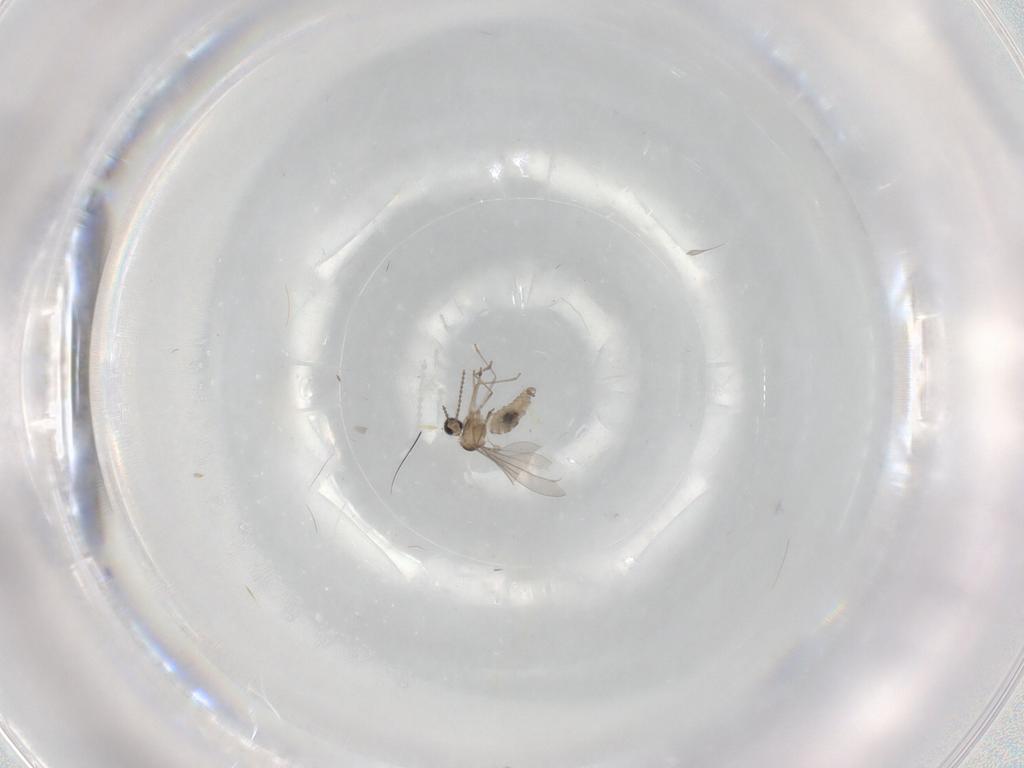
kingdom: Animalia
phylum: Arthropoda
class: Insecta
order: Diptera
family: Cecidomyiidae
